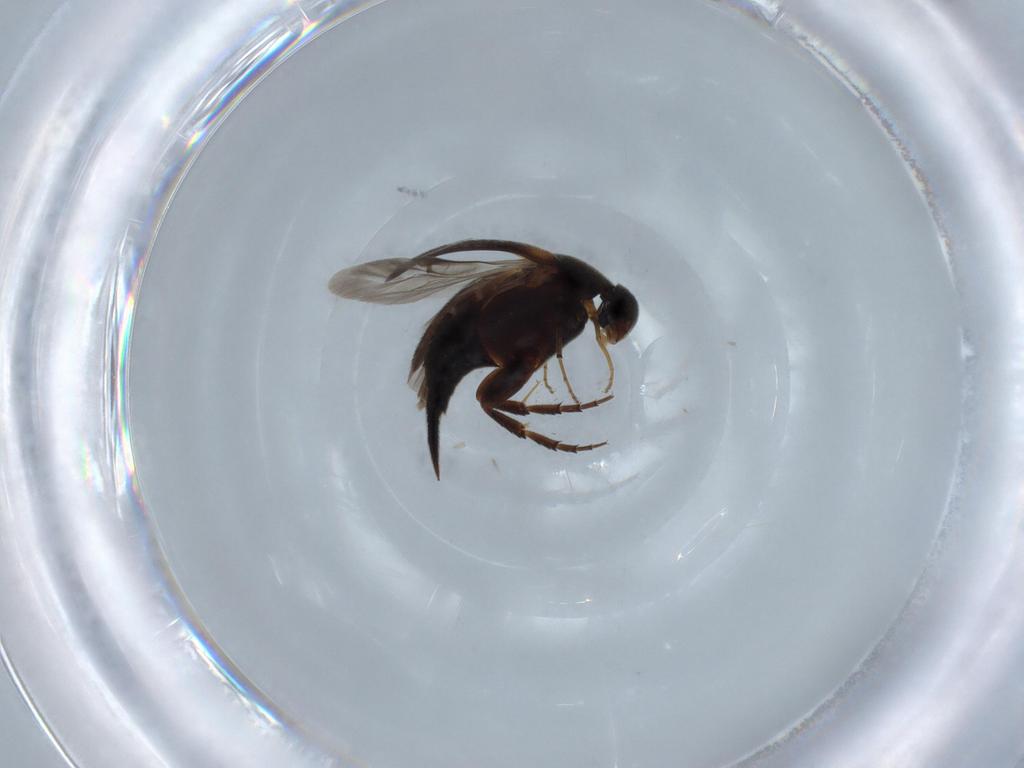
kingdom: Animalia
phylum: Arthropoda
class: Insecta
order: Coleoptera
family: Mordellidae
